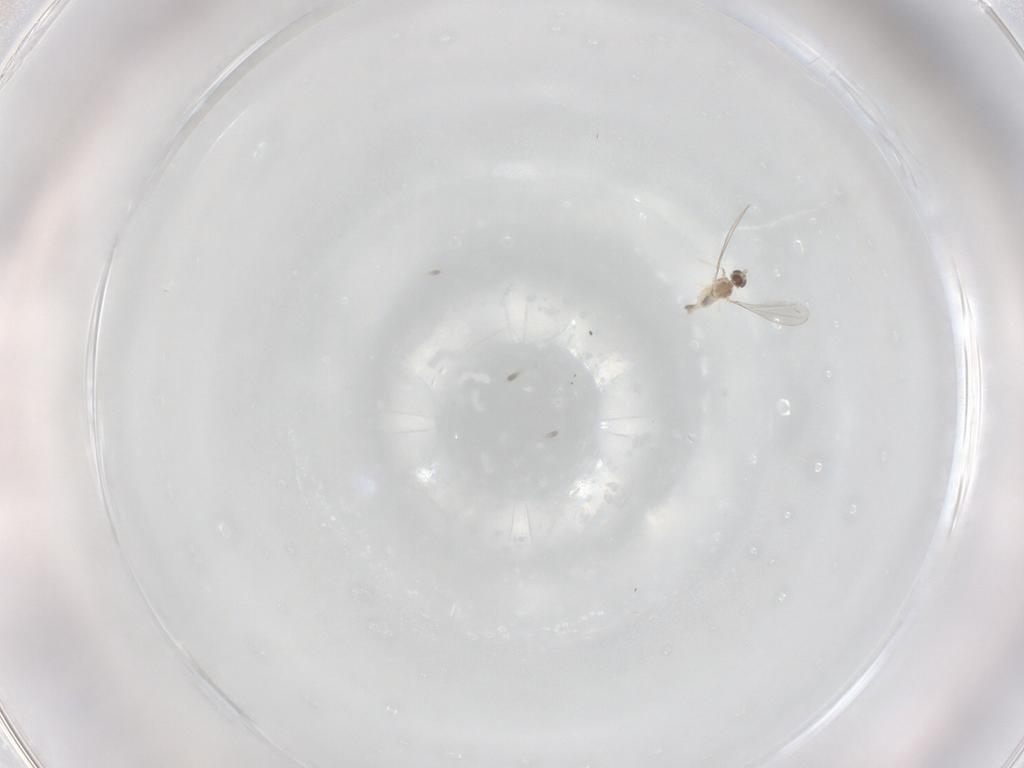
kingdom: Animalia
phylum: Arthropoda
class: Insecta
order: Diptera
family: Cecidomyiidae
